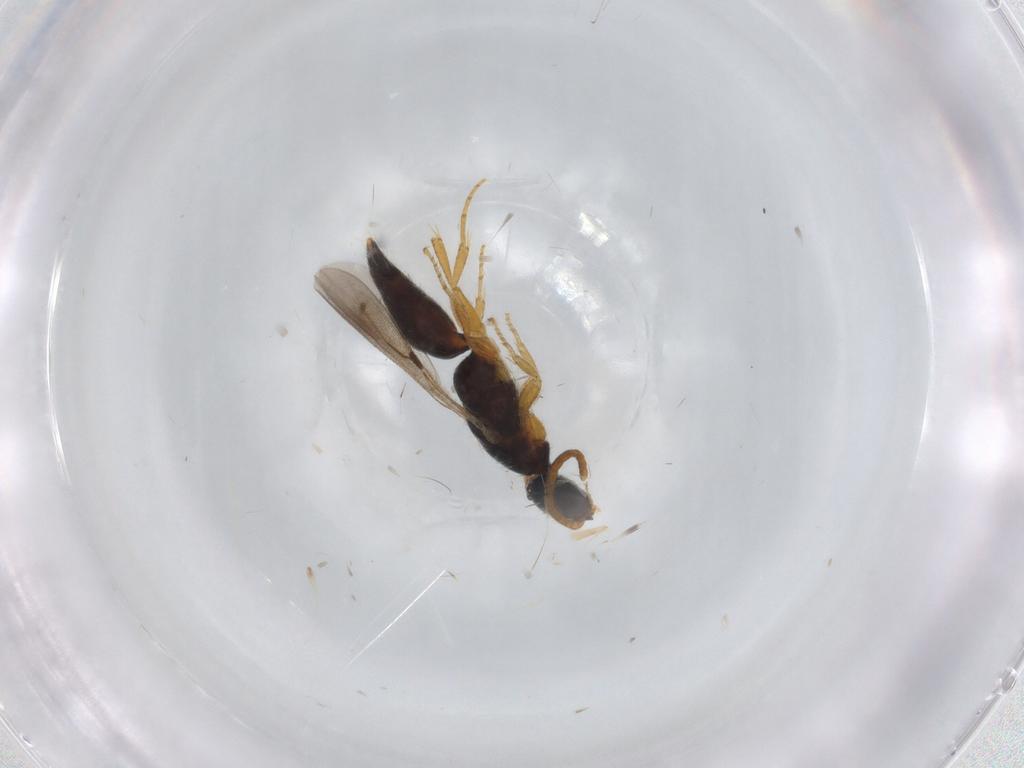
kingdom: Animalia
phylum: Arthropoda
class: Insecta
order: Hymenoptera
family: Bethylidae
